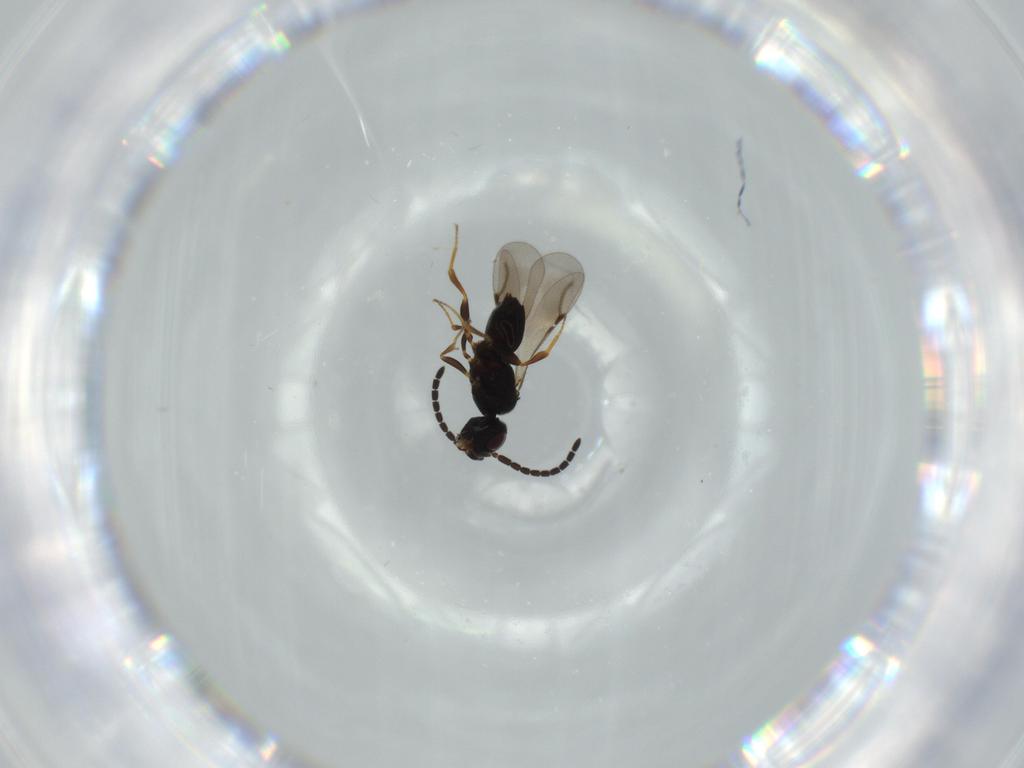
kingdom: Animalia
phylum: Arthropoda
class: Insecta
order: Hymenoptera
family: Ceraphronidae
